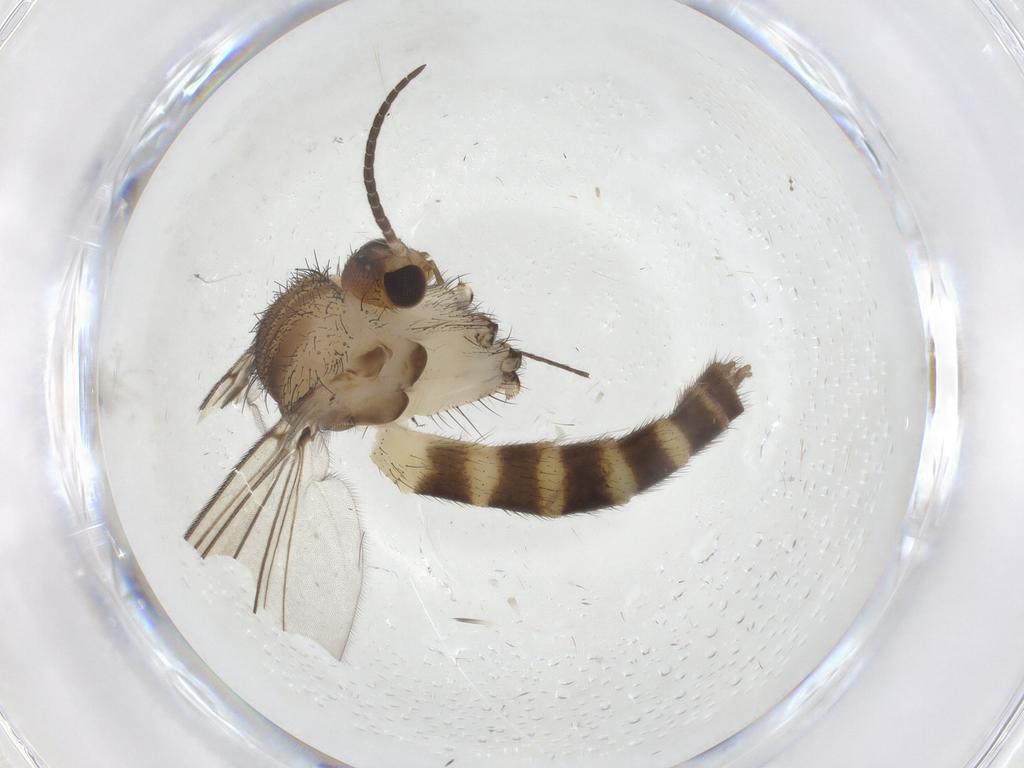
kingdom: Animalia
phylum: Arthropoda
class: Insecta
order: Diptera
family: Mycetophilidae
